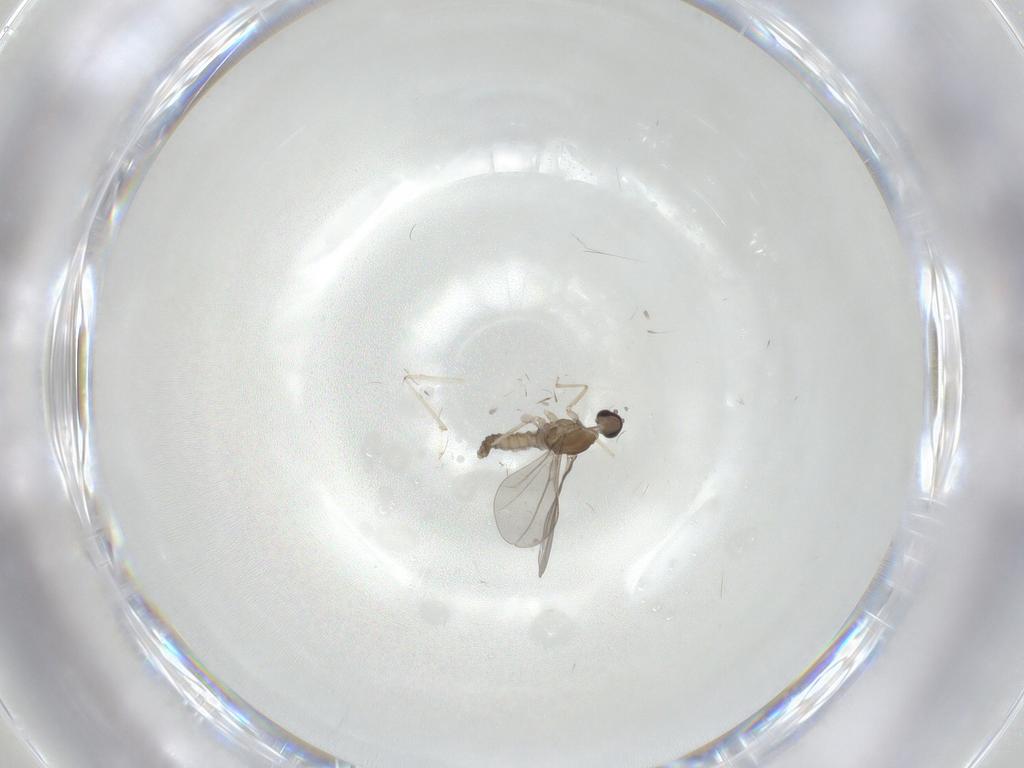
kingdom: Animalia
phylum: Arthropoda
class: Insecta
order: Diptera
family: Cecidomyiidae
